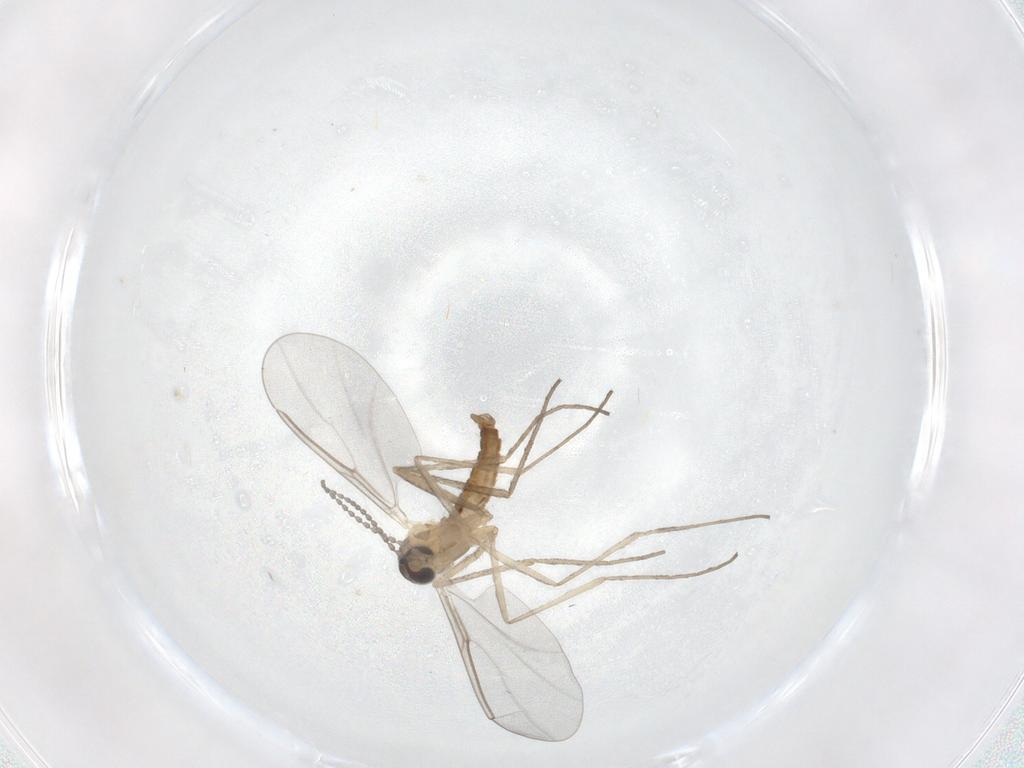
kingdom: Animalia
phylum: Arthropoda
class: Insecta
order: Diptera
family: Cecidomyiidae
